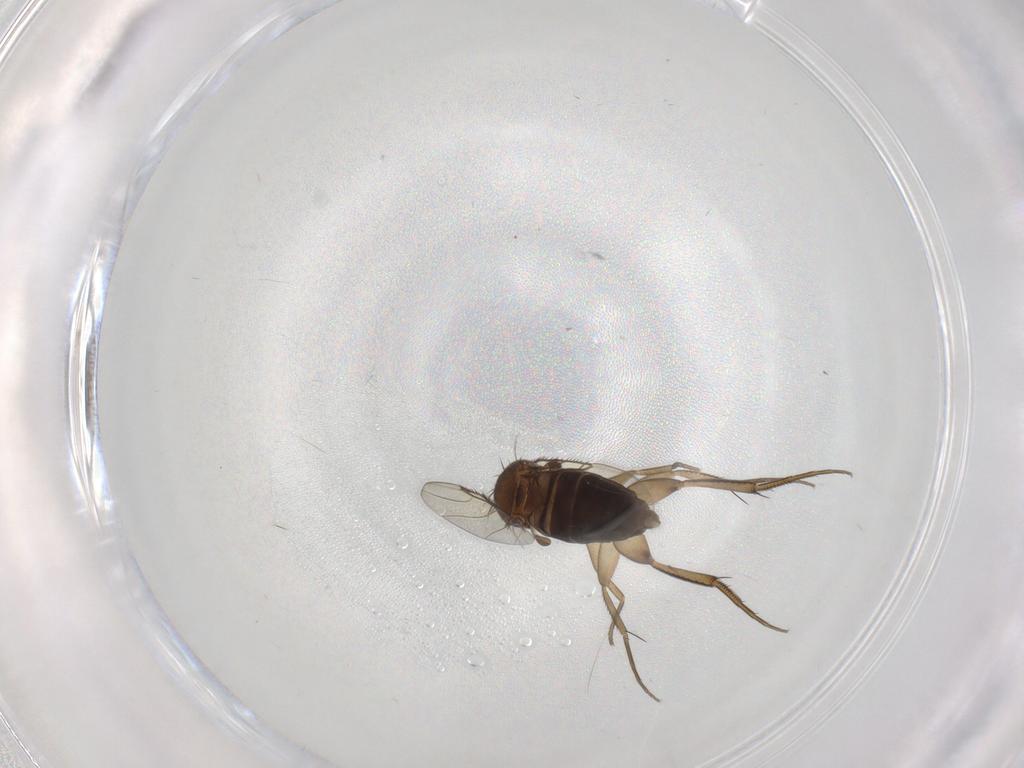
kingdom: Animalia
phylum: Arthropoda
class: Insecta
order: Diptera
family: Phoridae
